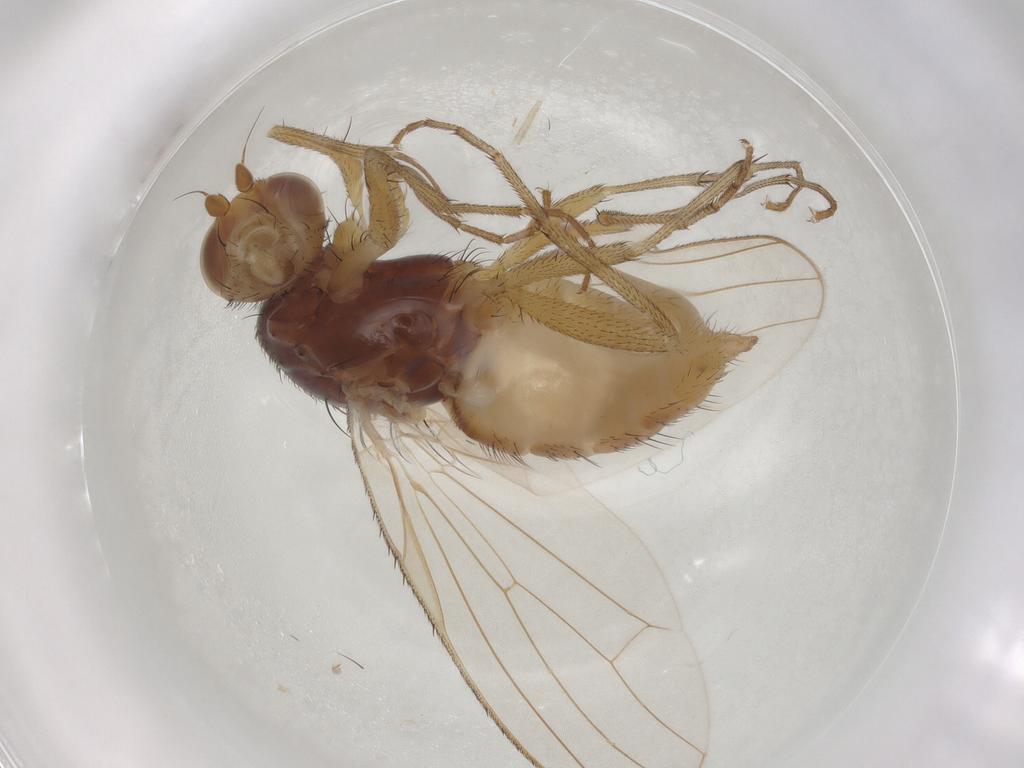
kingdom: Animalia
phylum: Arthropoda
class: Insecta
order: Diptera
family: Heleomyzidae
